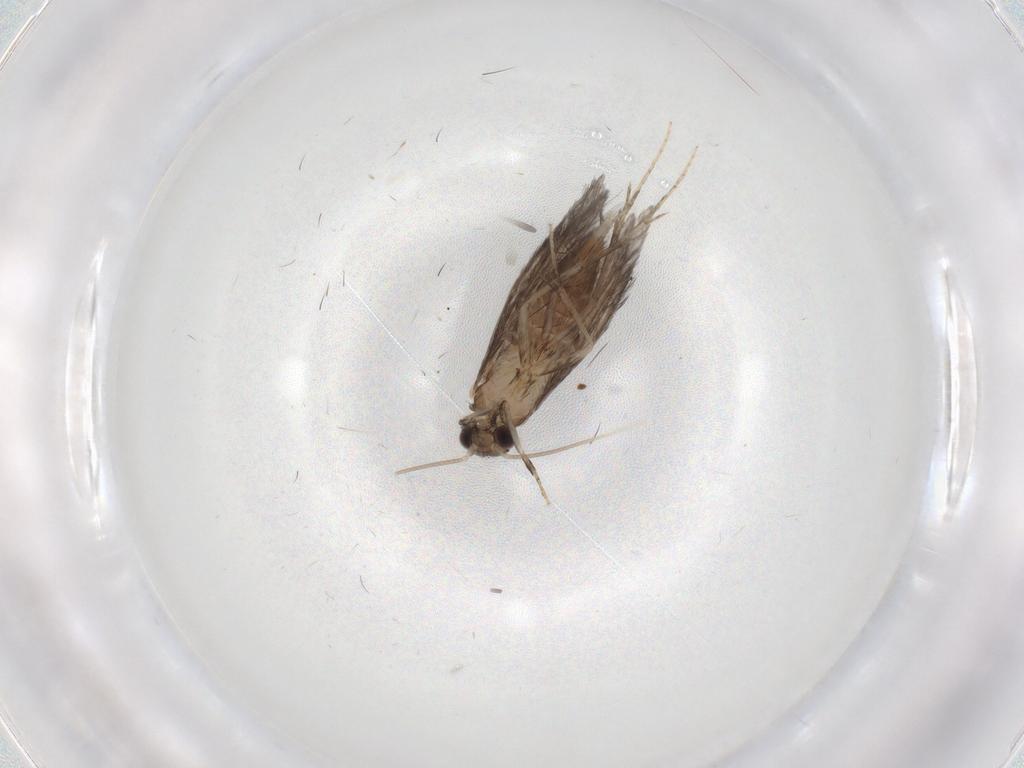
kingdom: Animalia
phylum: Arthropoda
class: Insecta
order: Trichoptera
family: Hydroptilidae
